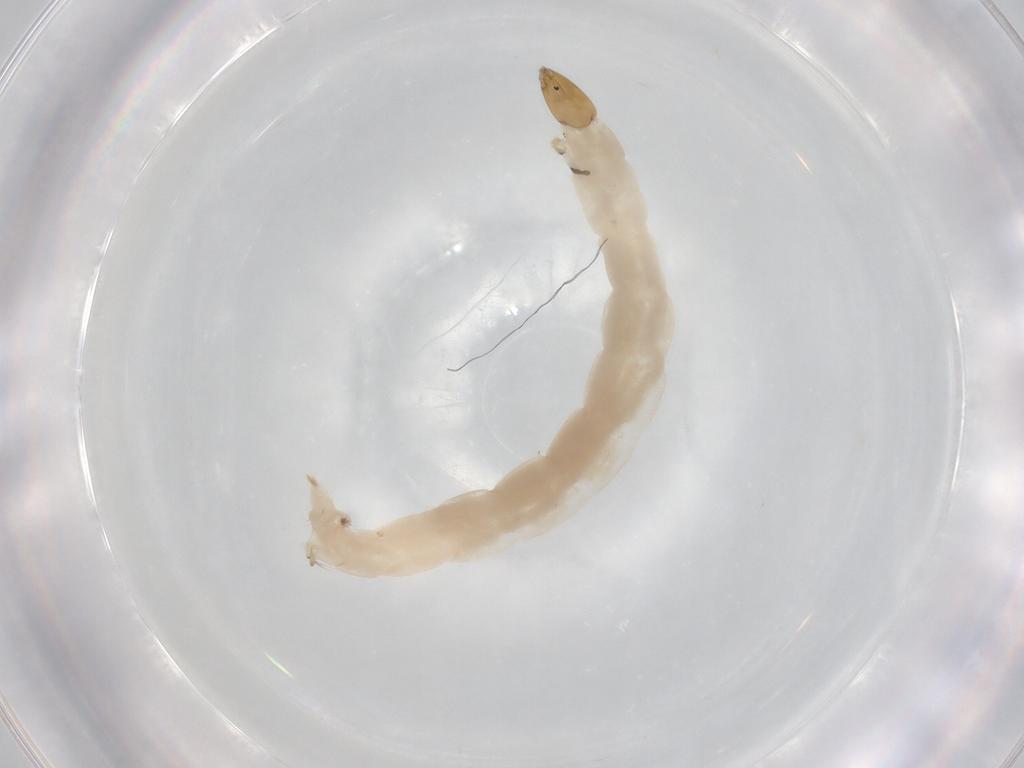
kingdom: Animalia
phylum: Arthropoda
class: Insecta
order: Diptera
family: Chironomidae
